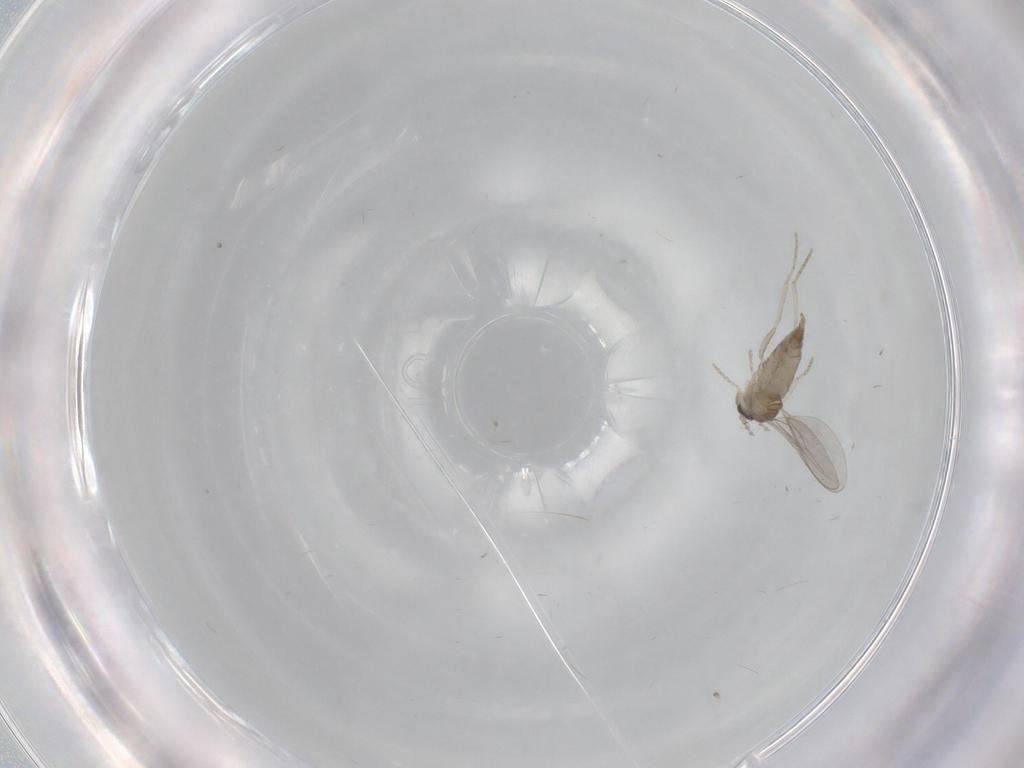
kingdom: Animalia
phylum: Arthropoda
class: Insecta
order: Diptera
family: Cecidomyiidae
